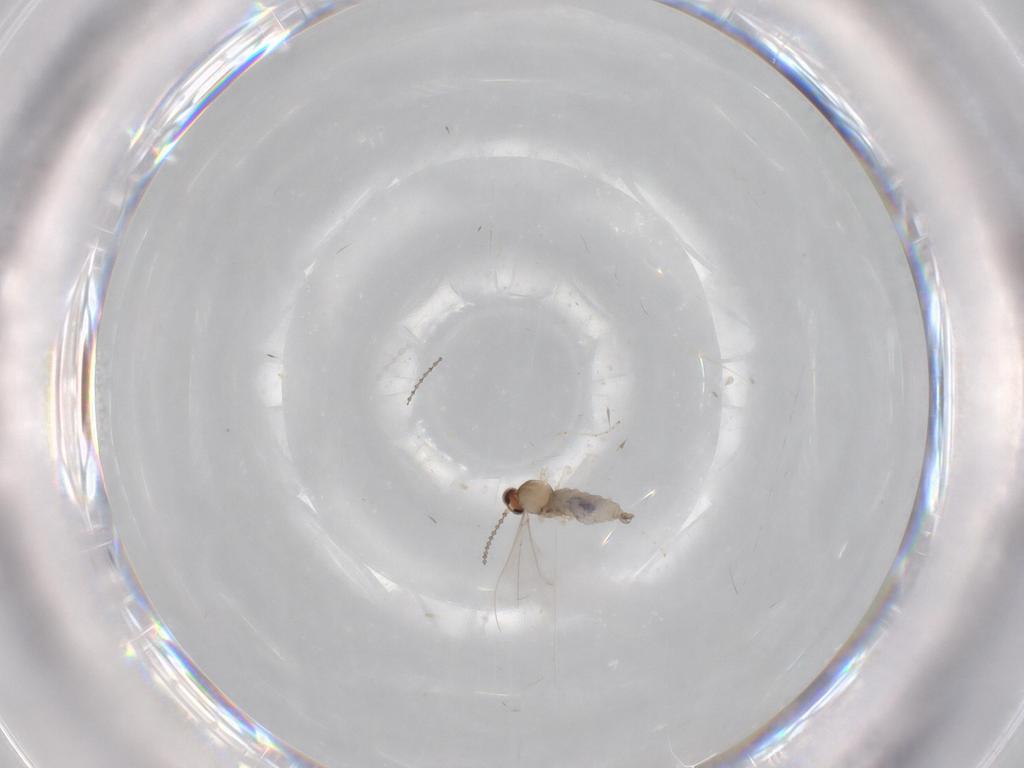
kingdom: Animalia
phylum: Arthropoda
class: Insecta
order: Diptera
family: Cecidomyiidae
